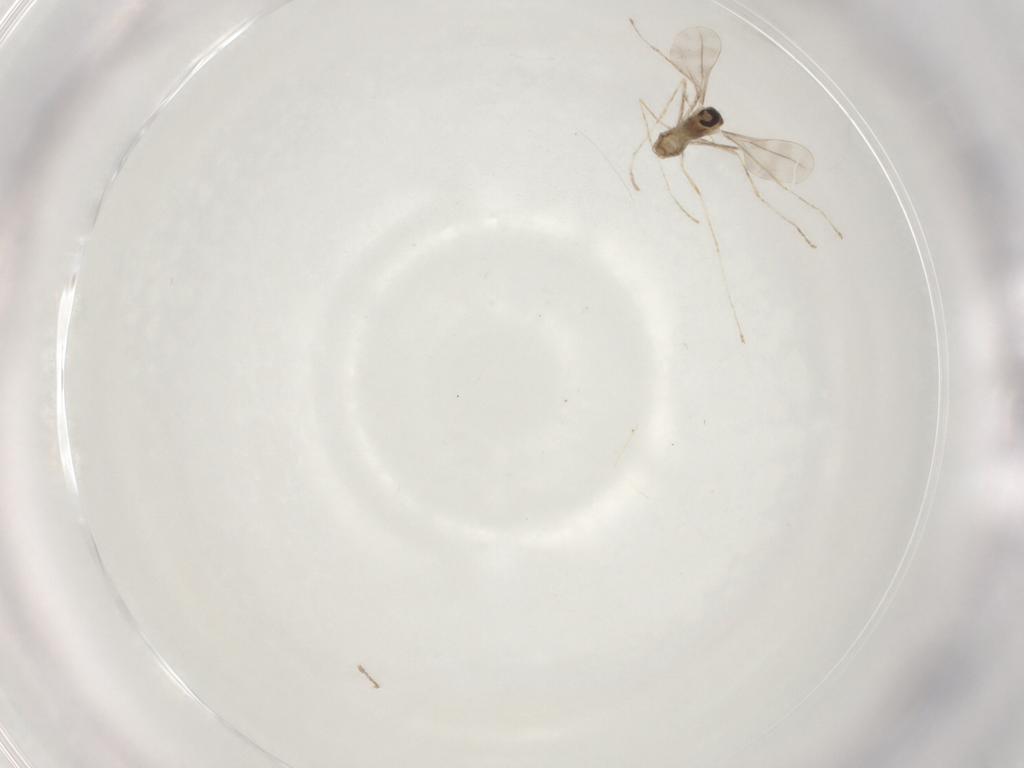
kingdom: Animalia
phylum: Arthropoda
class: Insecta
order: Diptera
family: Cecidomyiidae
